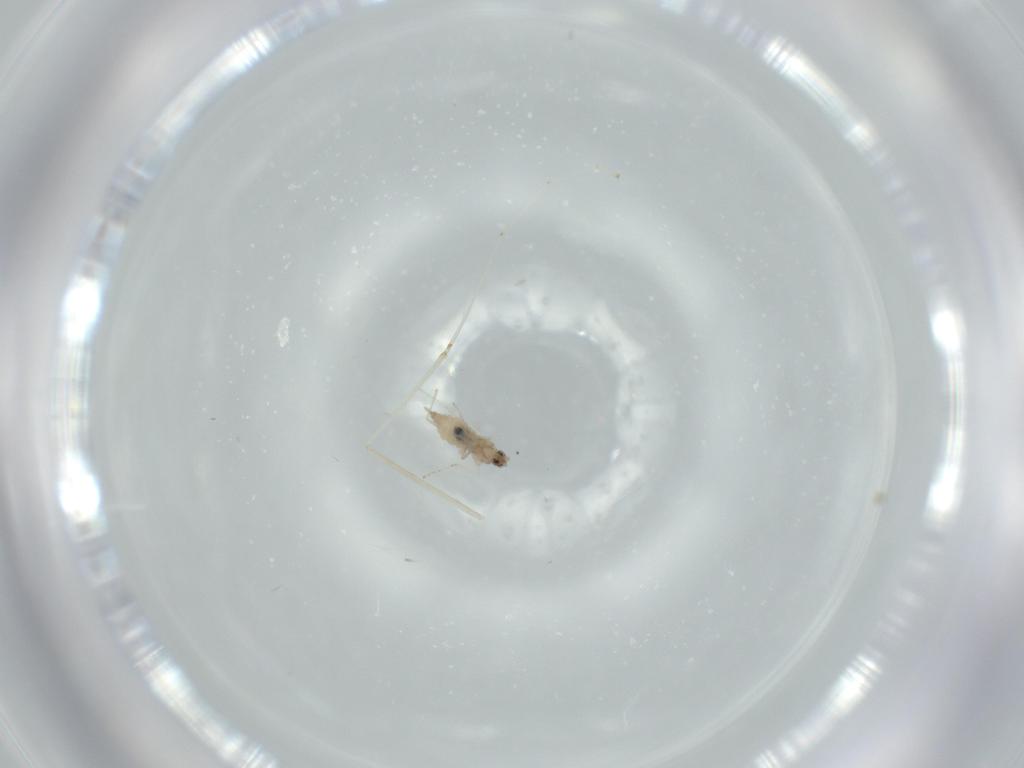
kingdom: Animalia
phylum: Arthropoda
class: Insecta
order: Diptera
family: Cecidomyiidae
